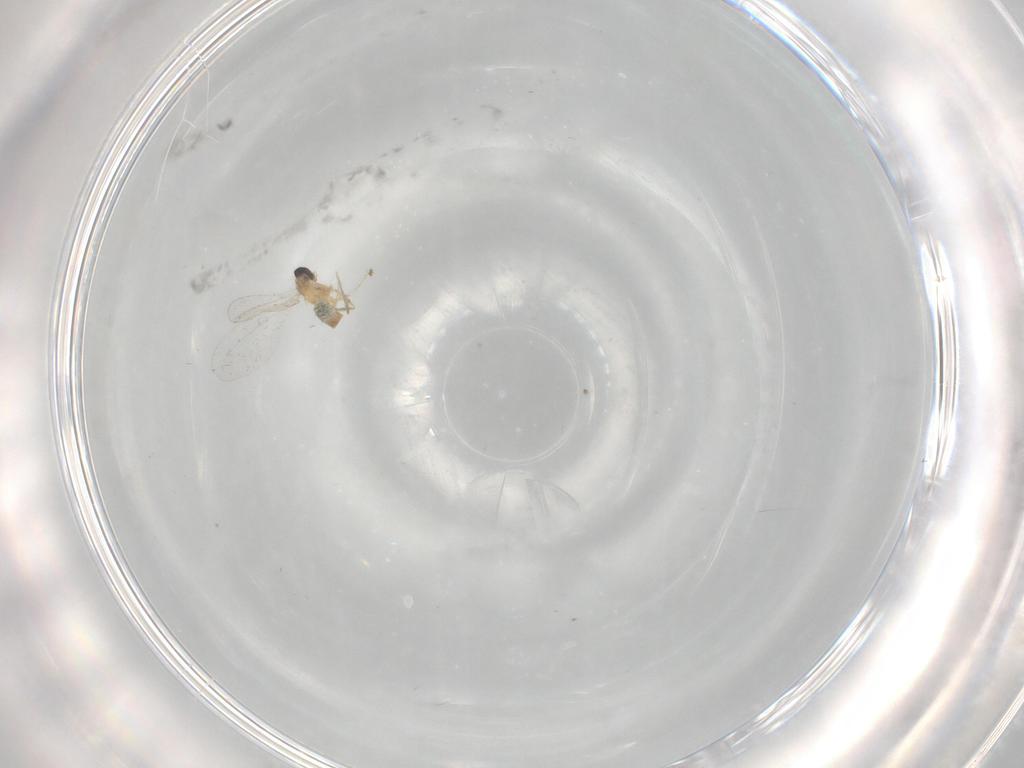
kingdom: Animalia
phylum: Arthropoda
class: Insecta
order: Diptera
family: Cecidomyiidae
